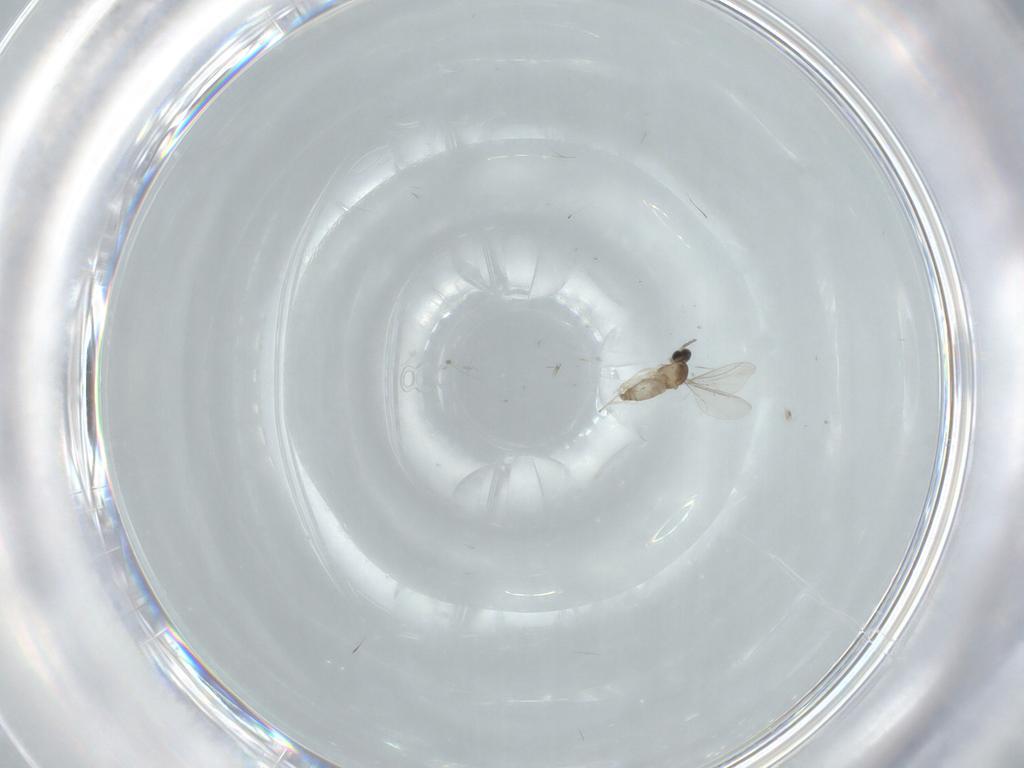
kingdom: Animalia
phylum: Arthropoda
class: Insecta
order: Diptera
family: Cecidomyiidae
